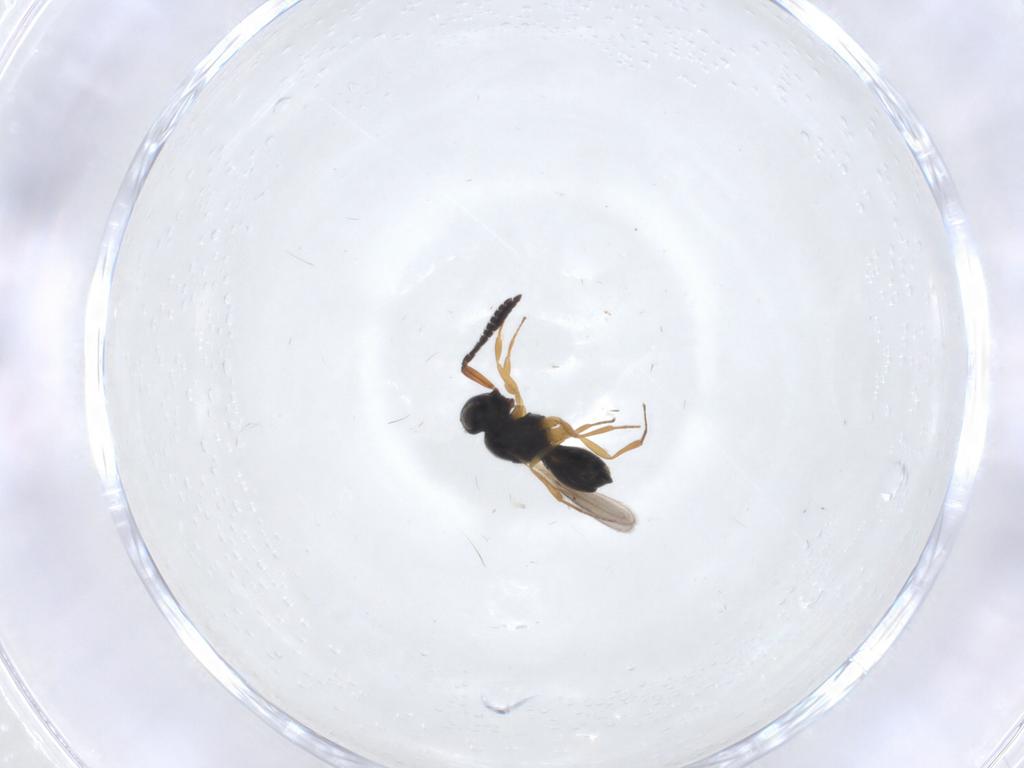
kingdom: Animalia
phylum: Arthropoda
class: Insecta
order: Hymenoptera
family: Scelionidae
